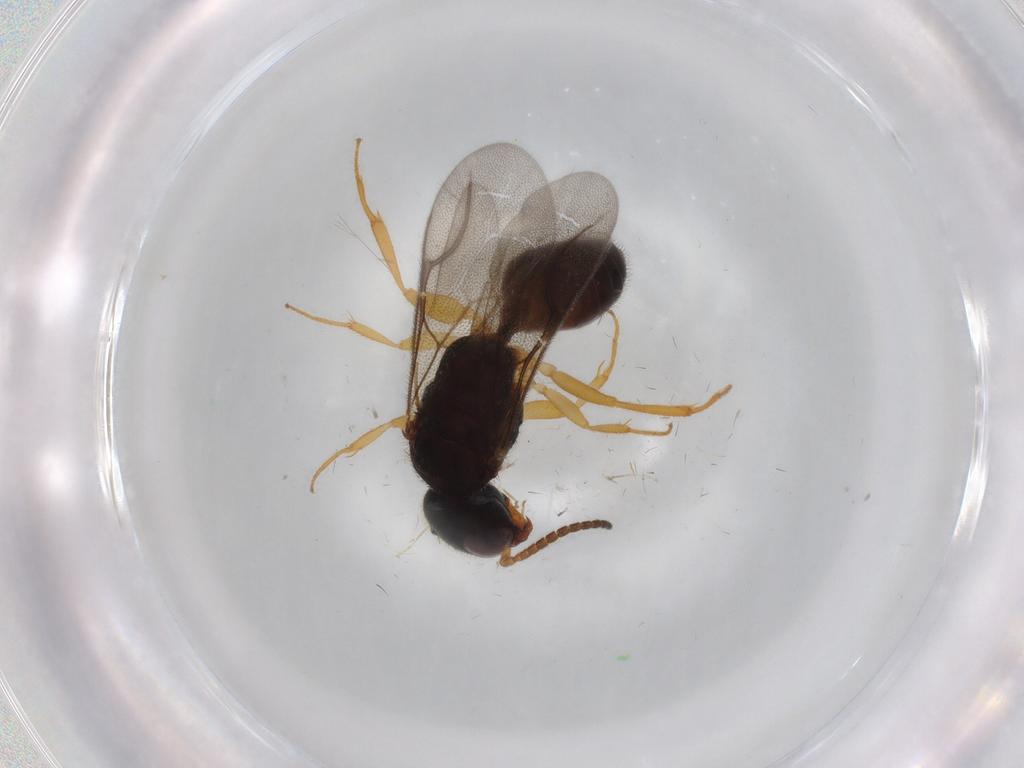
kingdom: Animalia
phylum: Arthropoda
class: Insecta
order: Hymenoptera
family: Bethylidae
